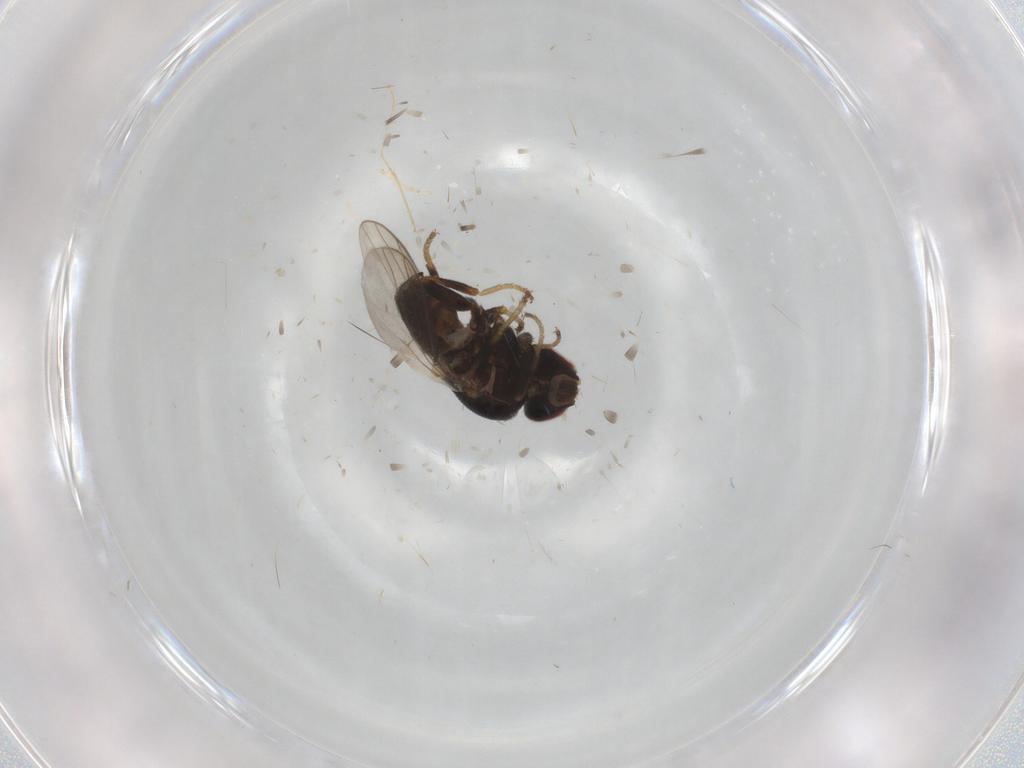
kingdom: Animalia
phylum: Arthropoda
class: Insecta
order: Diptera
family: Chloropidae
